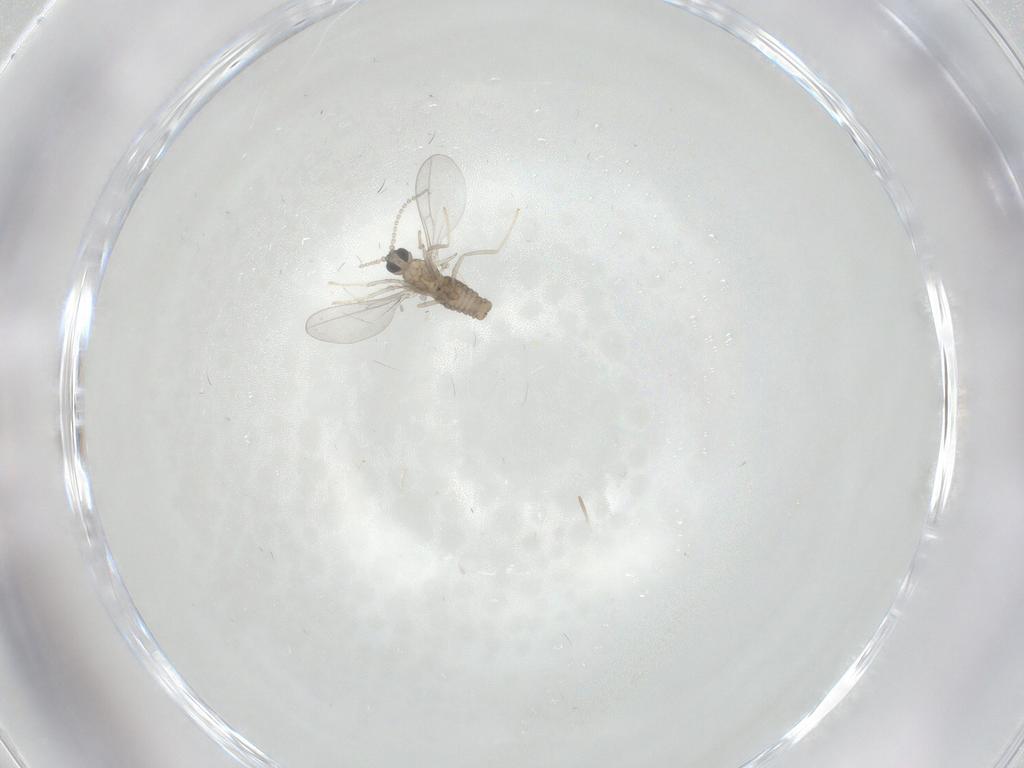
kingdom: Animalia
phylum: Arthropoda
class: Insecta
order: Diptera
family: Cecidomyiidae
